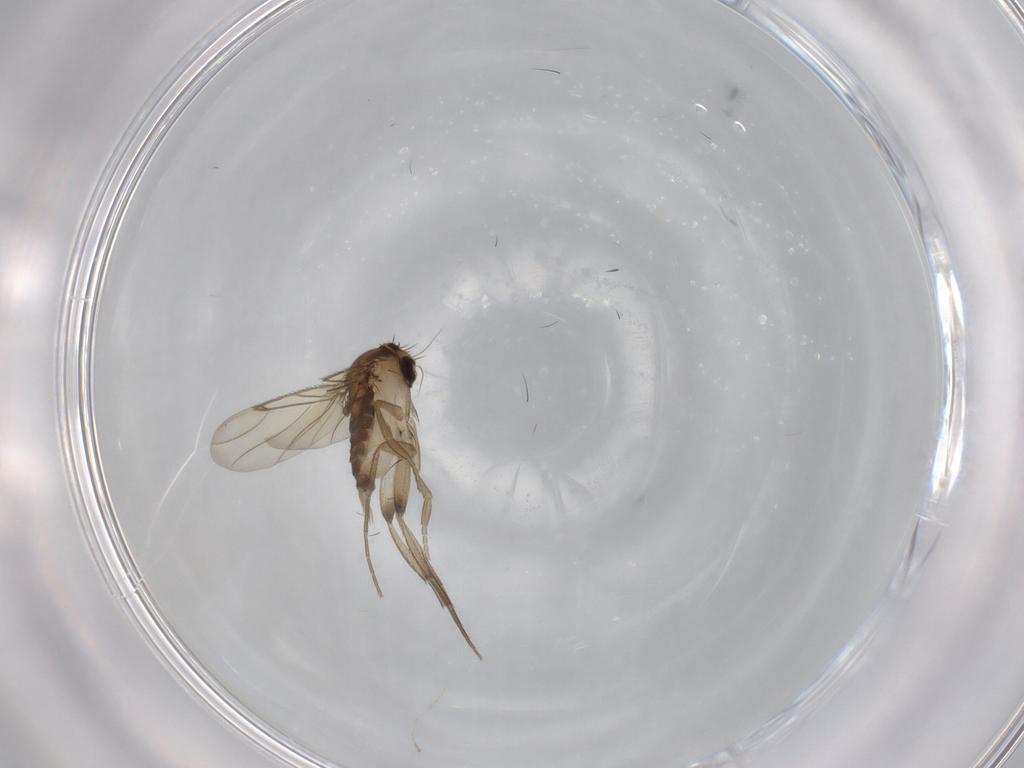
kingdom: Animalia
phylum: Arthropoda
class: Insecta
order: Diptera
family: Phoridae
